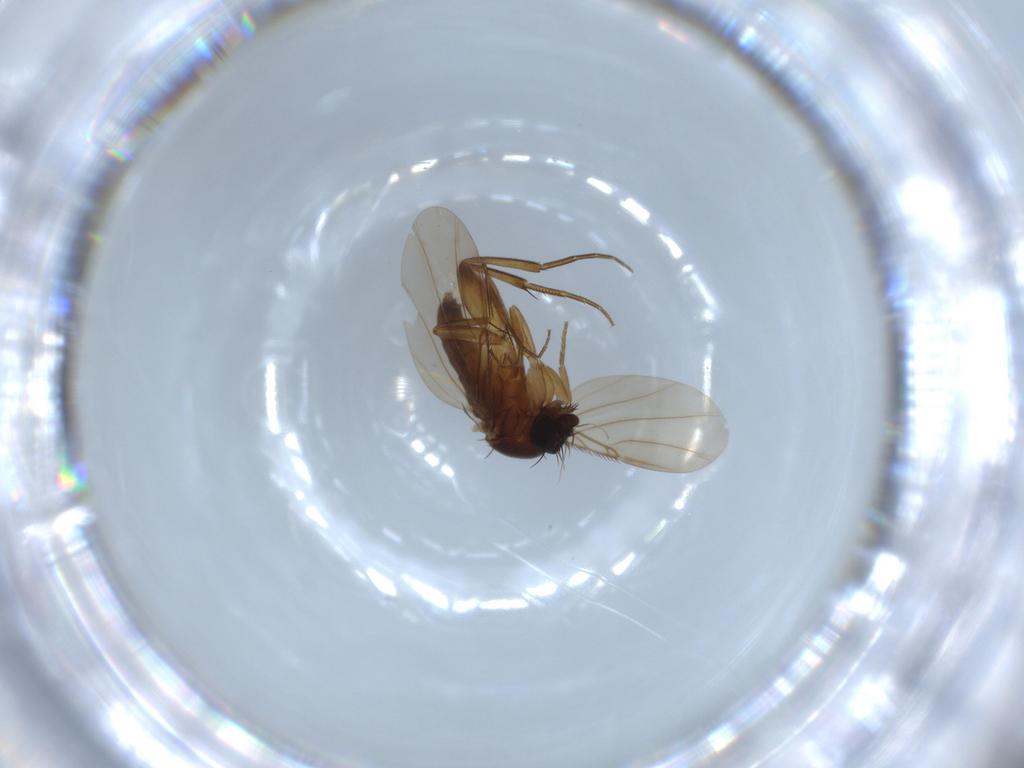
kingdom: Animalia
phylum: Arthropoda
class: Insecta
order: Diptera
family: Phoridae
